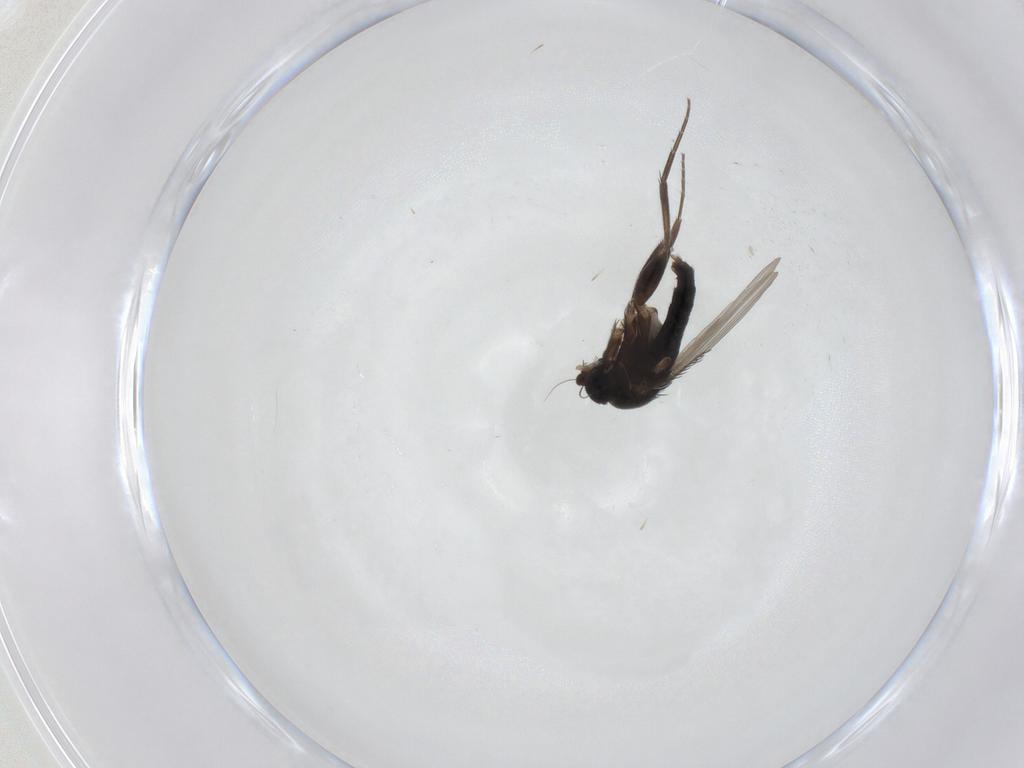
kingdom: Animalia
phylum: Arthropoda
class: Insecta
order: Diptera
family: Phoridae
